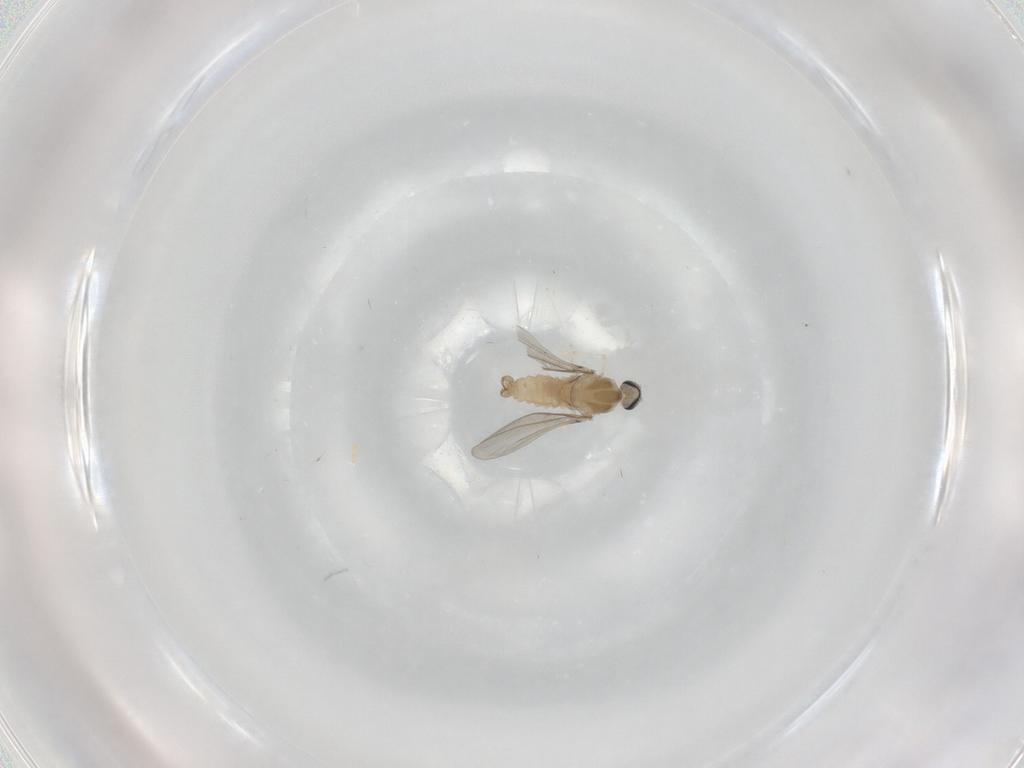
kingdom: Animalia
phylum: Arthropoda
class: Insecta
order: Diptera
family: Cecidomyiidae
